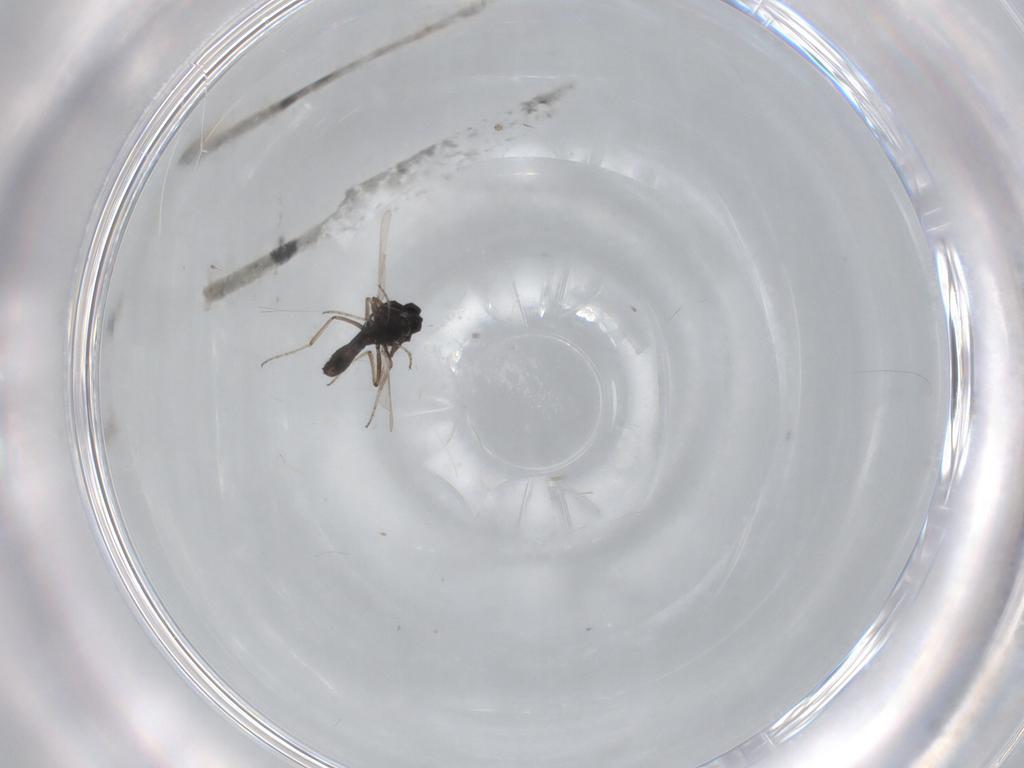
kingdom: Animalia
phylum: Arthropoda
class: Insecta
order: Diptera
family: Ceratopogonidae
